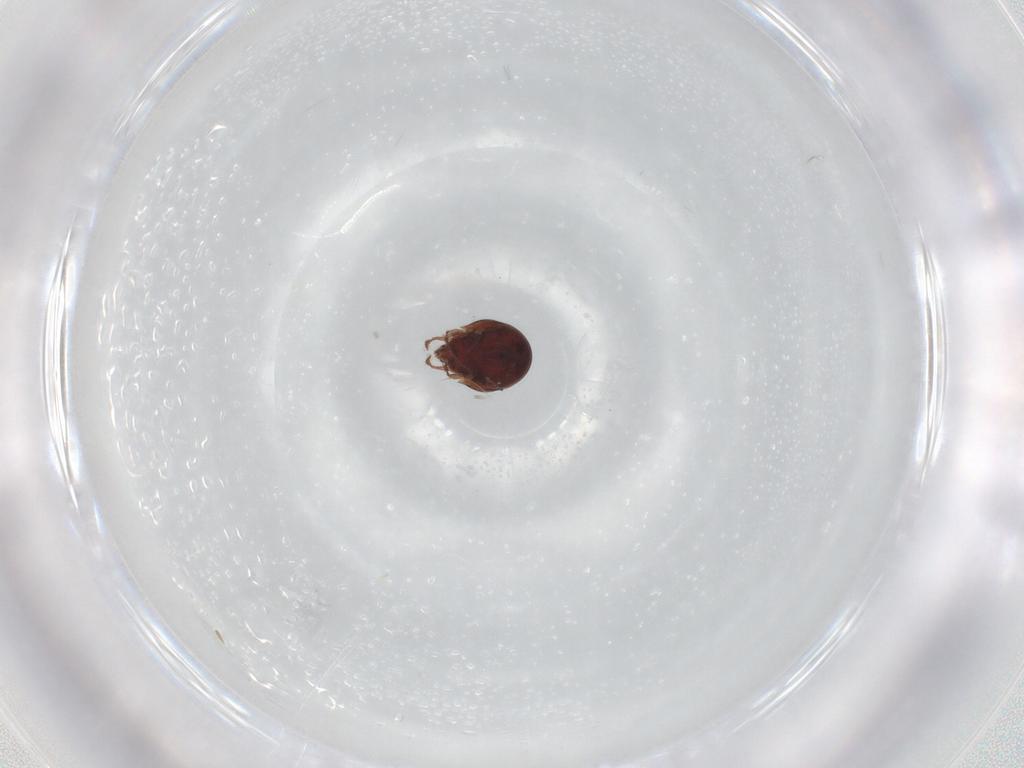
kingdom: Animalia
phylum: Arthropoda
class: Arachnida
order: Sarcoptiformes
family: Ceratozetidae
